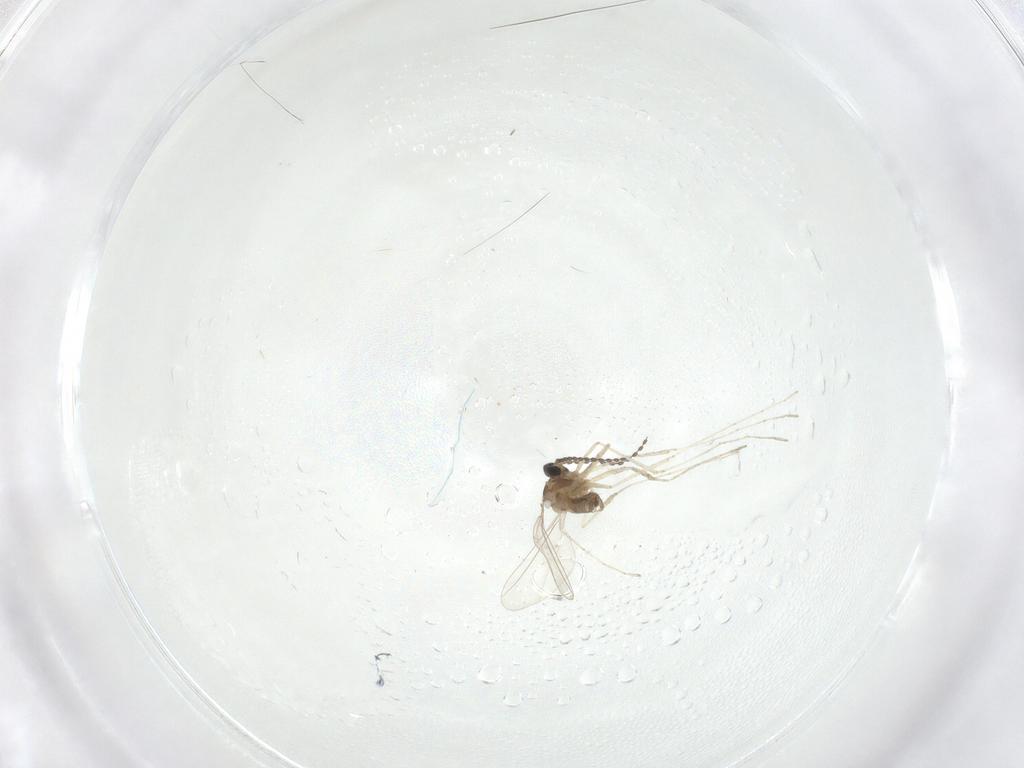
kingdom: Animalia
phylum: Arthropoda
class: Insecta
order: Diptera
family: Cecidomyiidae
